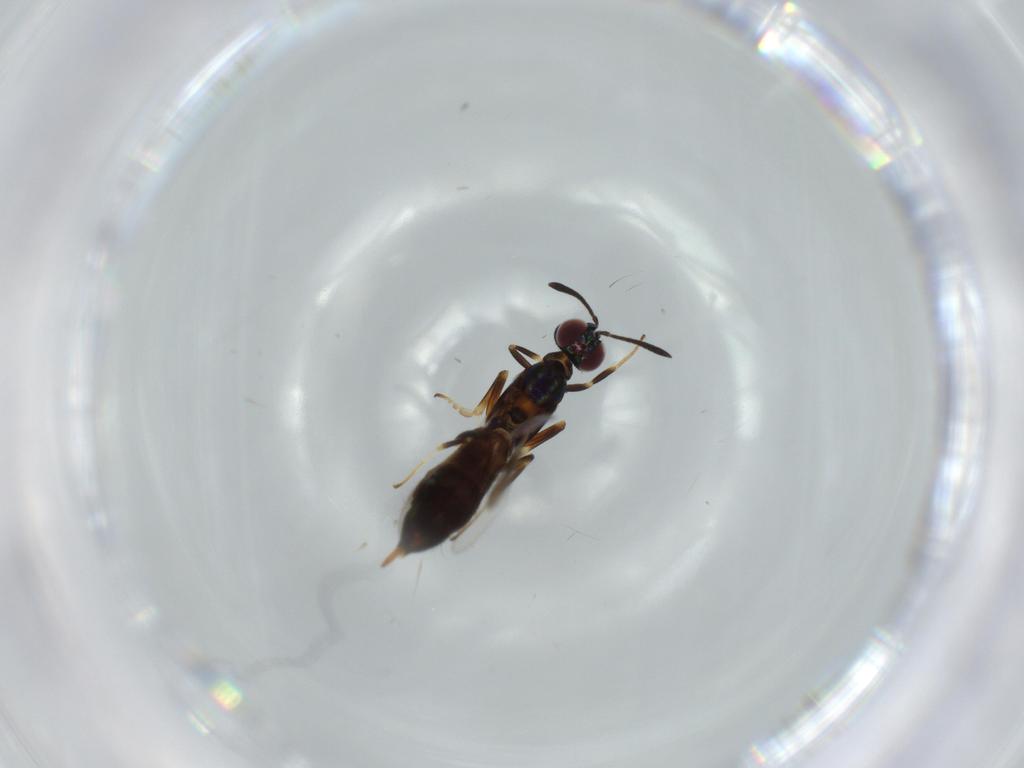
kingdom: Animalia
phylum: Arthropoda
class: Insecta
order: Hymenoptera
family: Eupelmidae
